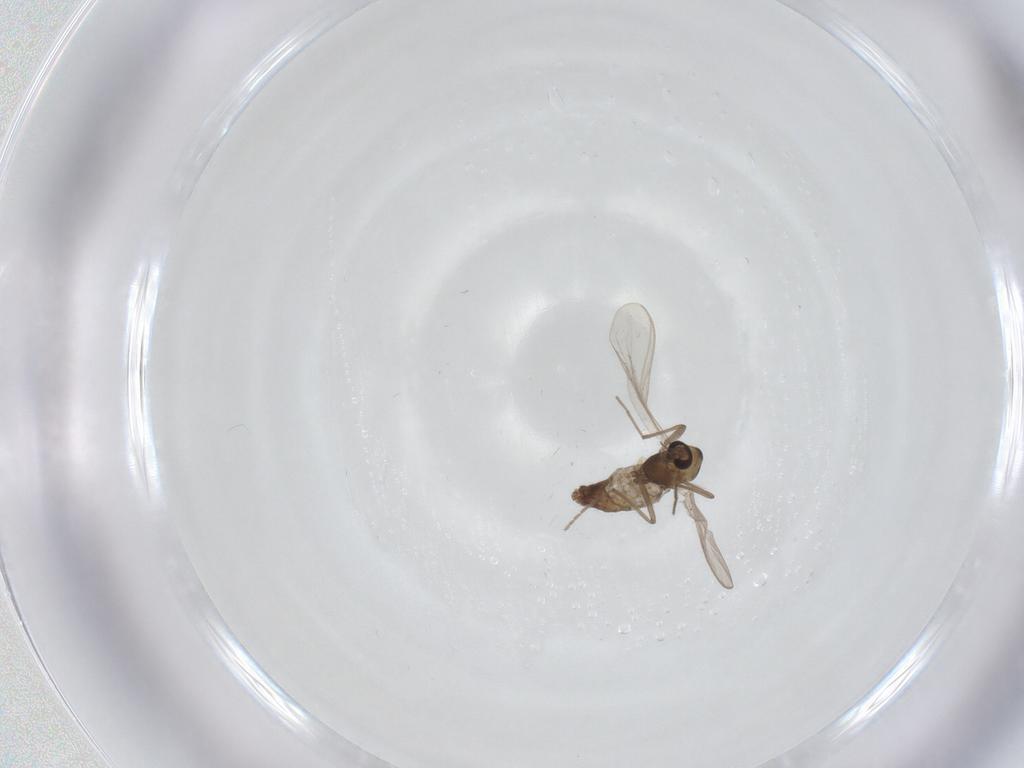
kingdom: Animalia
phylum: Arthropoda
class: Insecta
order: Diptera
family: Chironomidae
